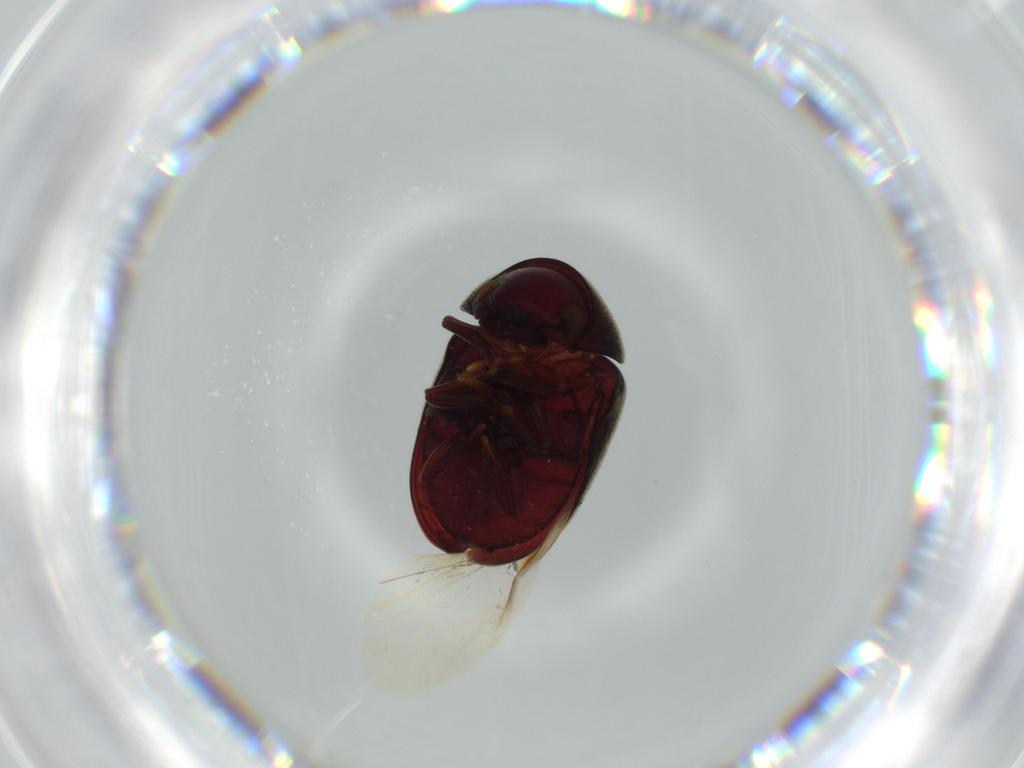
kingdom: Animalia
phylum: Arthropoda
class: Insecta
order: Coleoptera
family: Ptinidae
